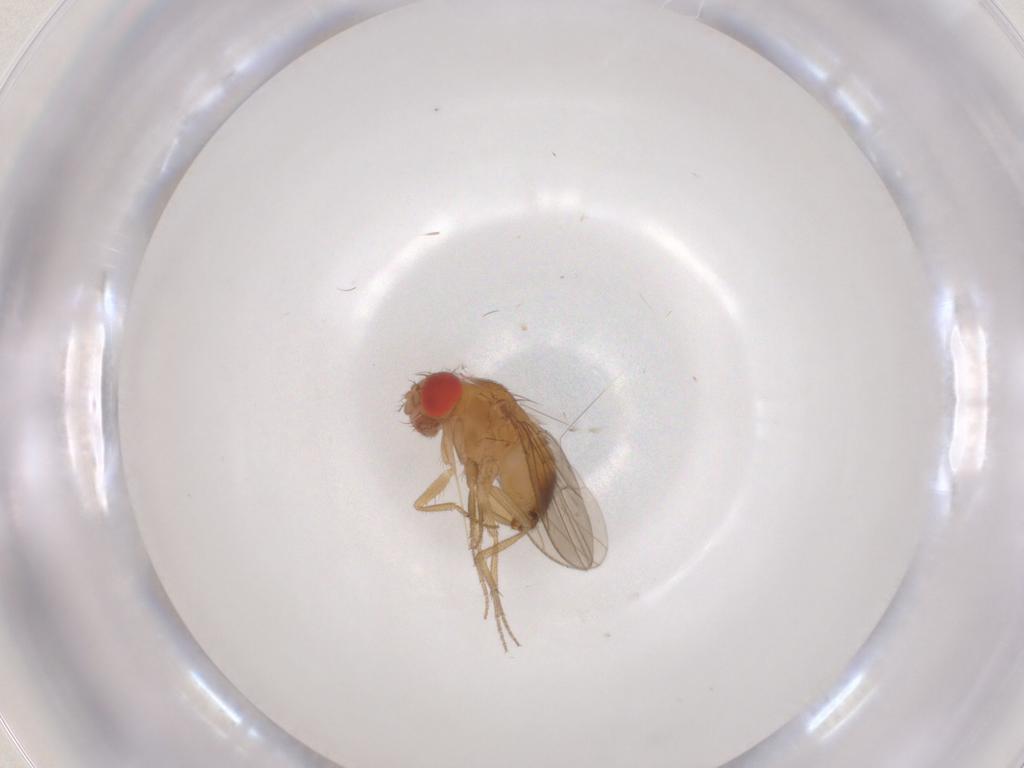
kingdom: Animalia
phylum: Arthropoda
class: Insecta
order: Diptera
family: Drosophilidae
